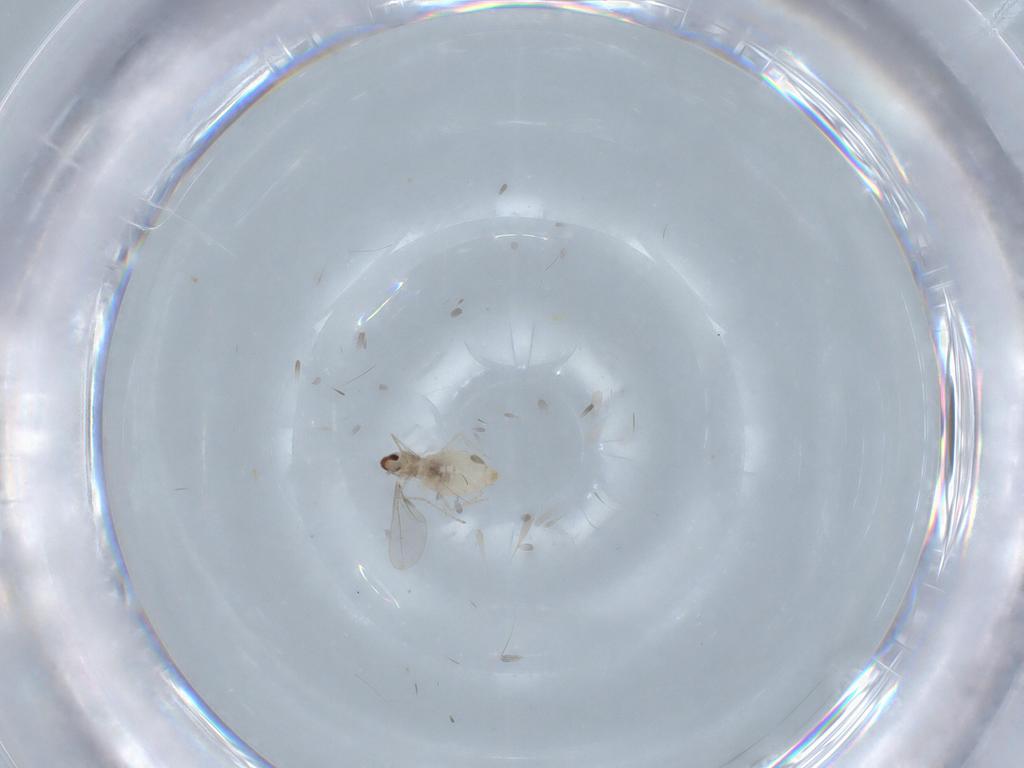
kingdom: Animalia
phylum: Arthropoda
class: Insecta
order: Diptera
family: Cecidomyiidae
